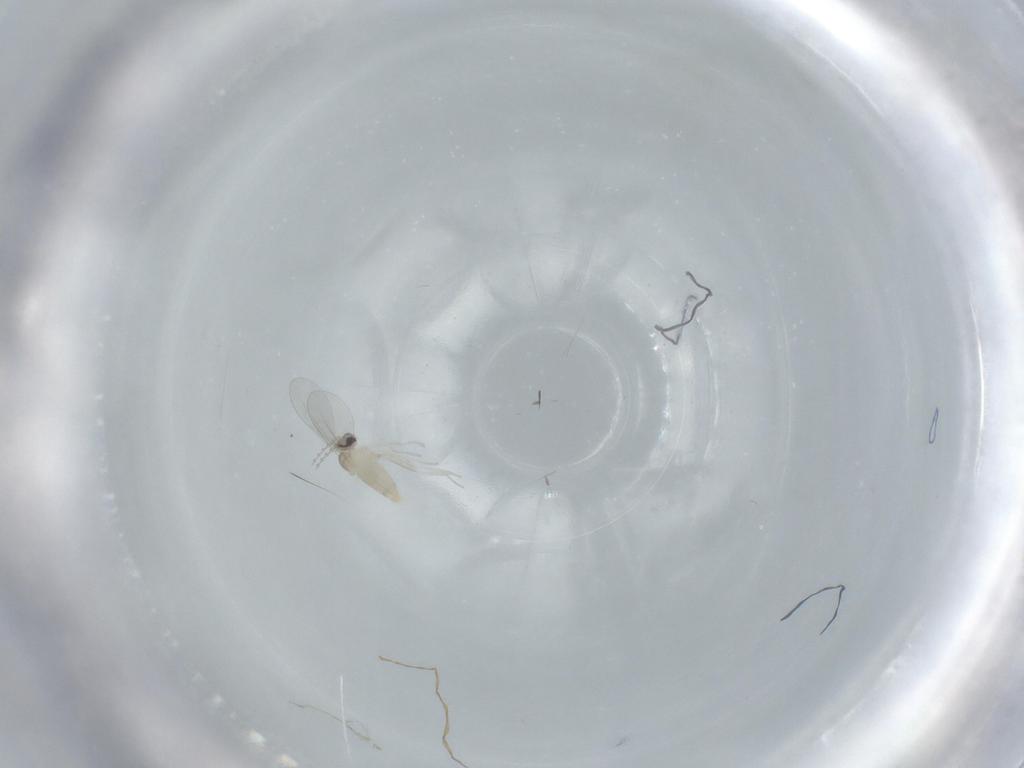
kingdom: Animalia
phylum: Arthropoda
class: Insecta
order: Diptera
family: Cecidomyiidae
